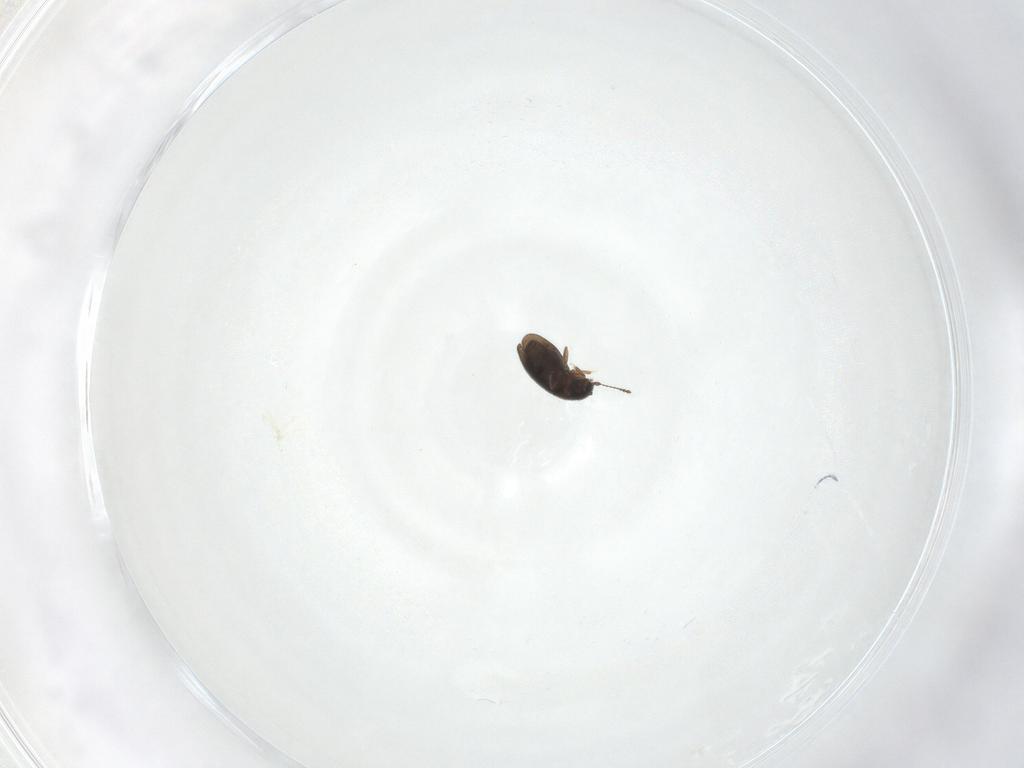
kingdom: Animalia
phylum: Arthropoda
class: Insecta
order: Coleoptera
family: Ptiliidae
